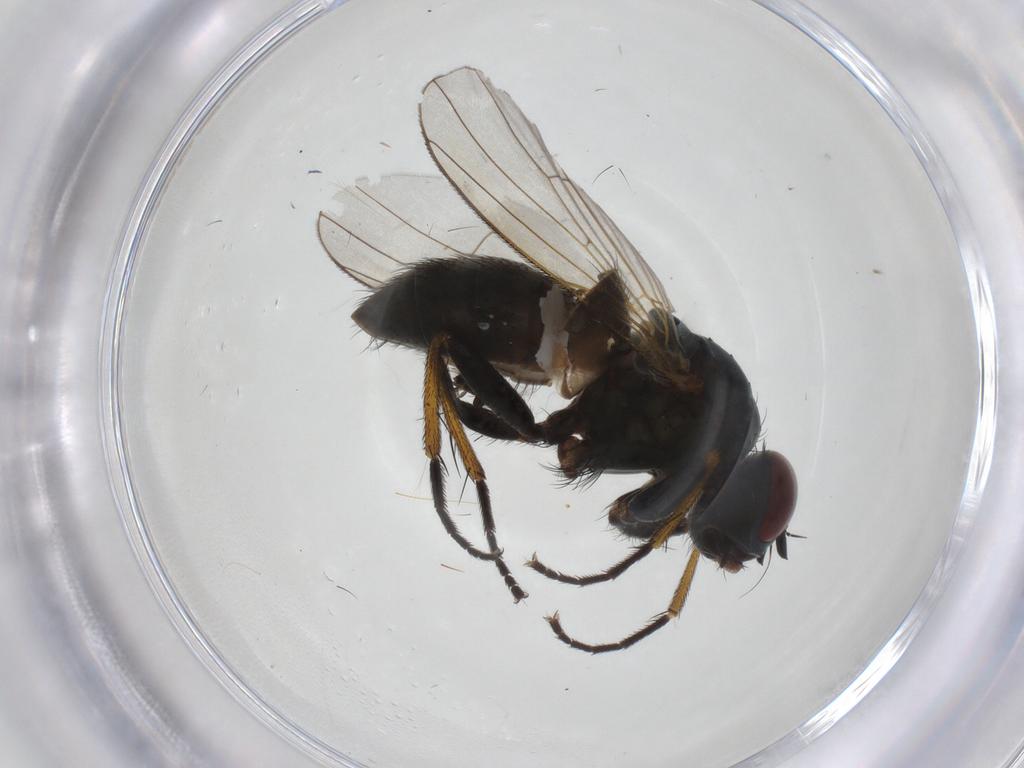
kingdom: Animalia
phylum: Arthropoda
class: Insecta
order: Diptera
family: Sciaridae
